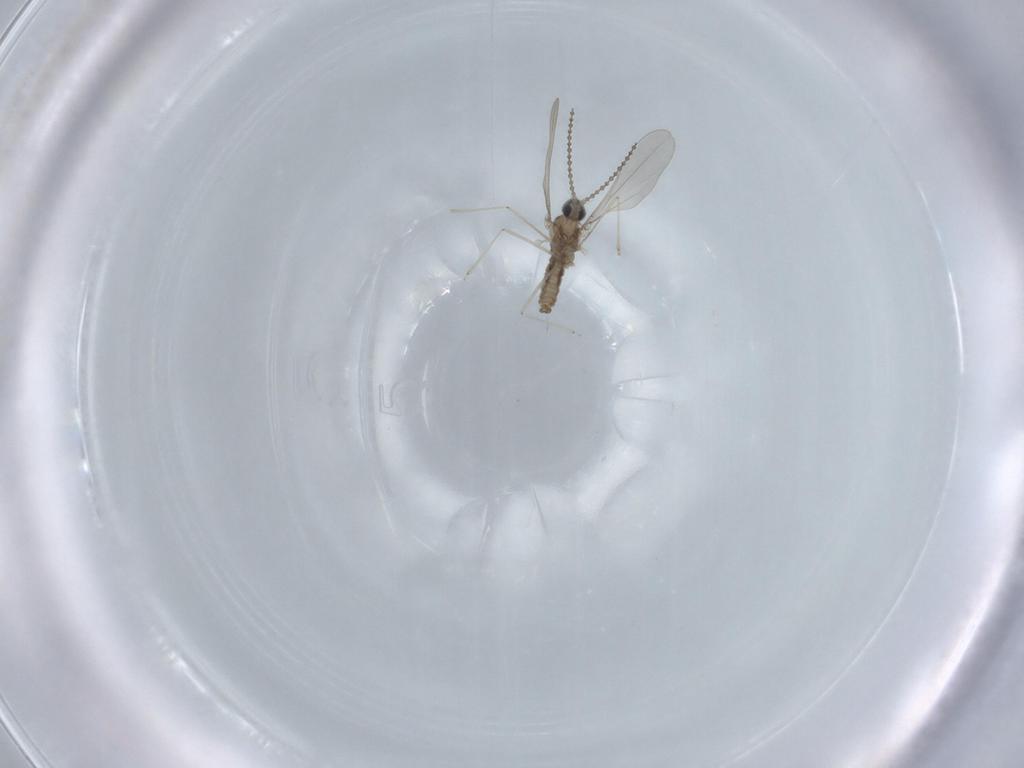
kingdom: Animalia
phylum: Arthropoda
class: Insecta
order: Diptera
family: Cecidomyiidae
